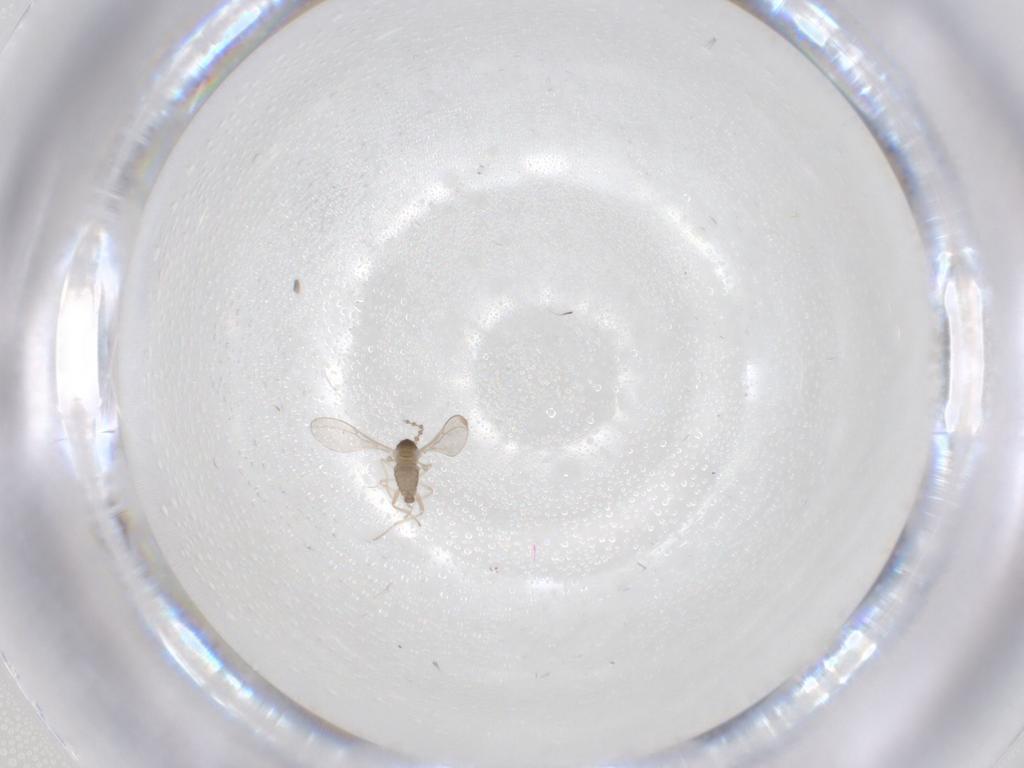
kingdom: Animalia
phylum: Arthropoda
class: Insecta
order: Diptera
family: Cecidomyiidae
